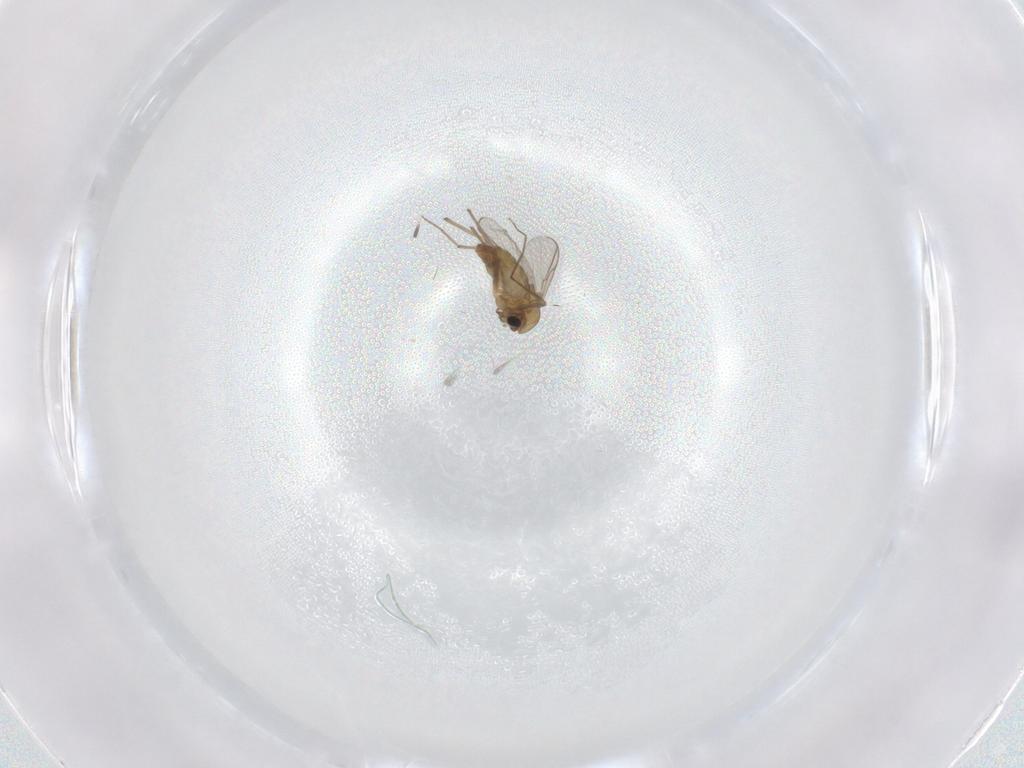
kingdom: Animalia
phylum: Arthropoda
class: Insecta
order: Diptera
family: Chironomidae
